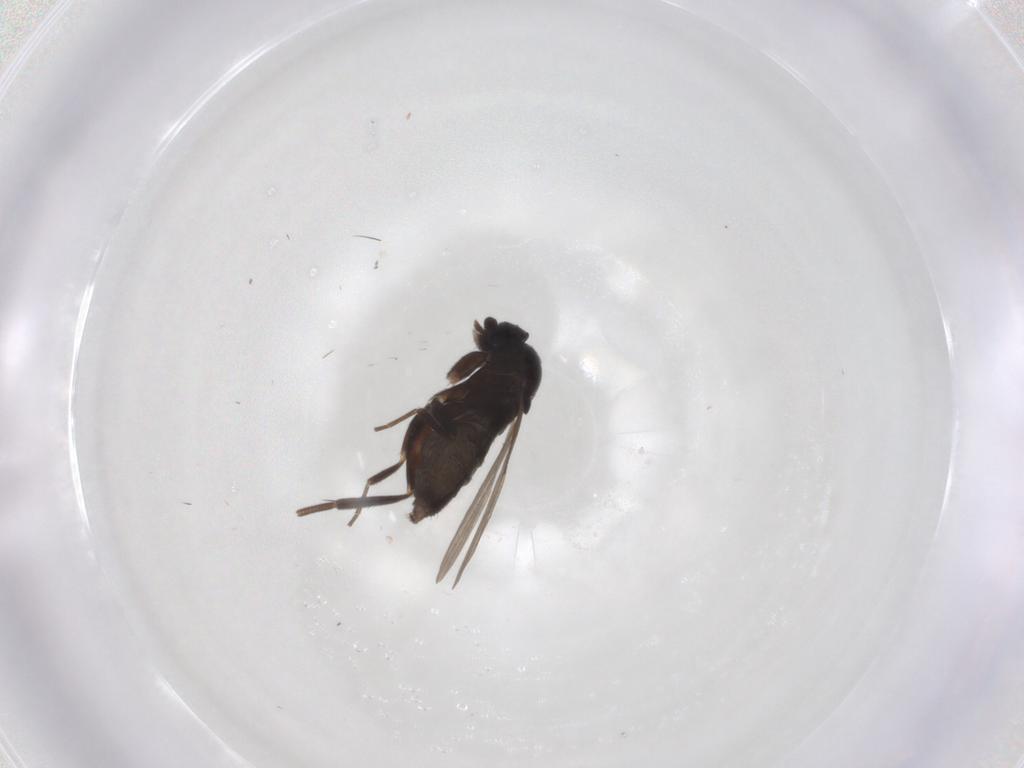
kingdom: Animalia
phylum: Arthropoda
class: Insecta
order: Diptera
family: Phoridae
